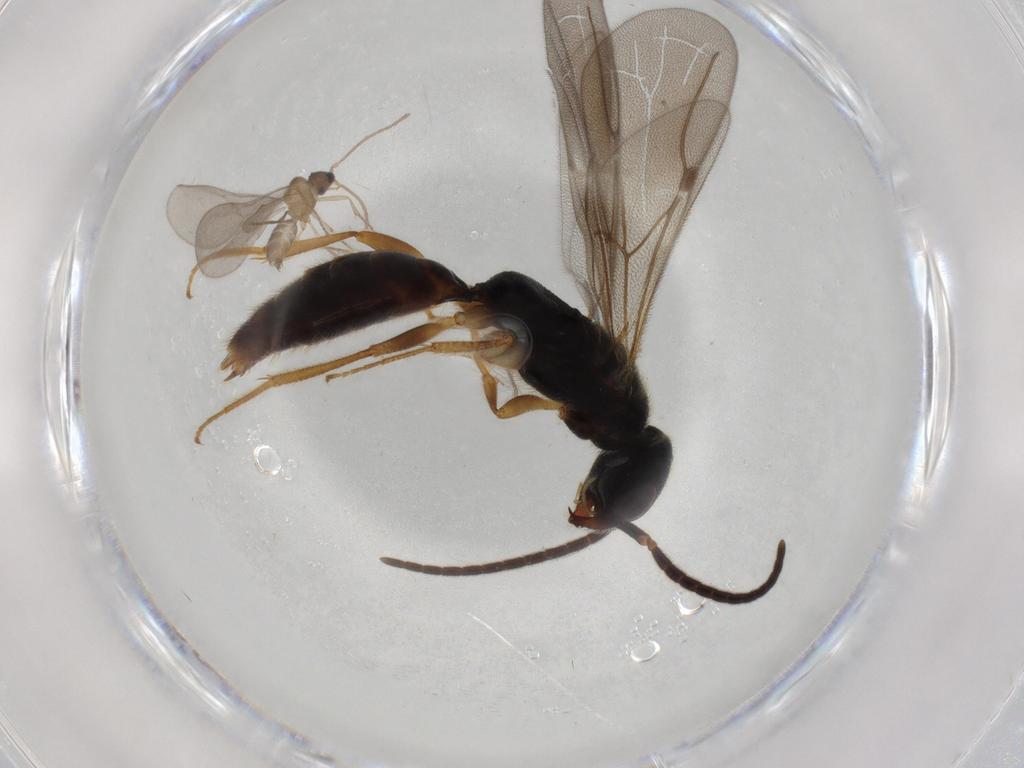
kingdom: Animalia
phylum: Arthropoda
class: Insecta
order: Hymenoptera
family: Formicidae
